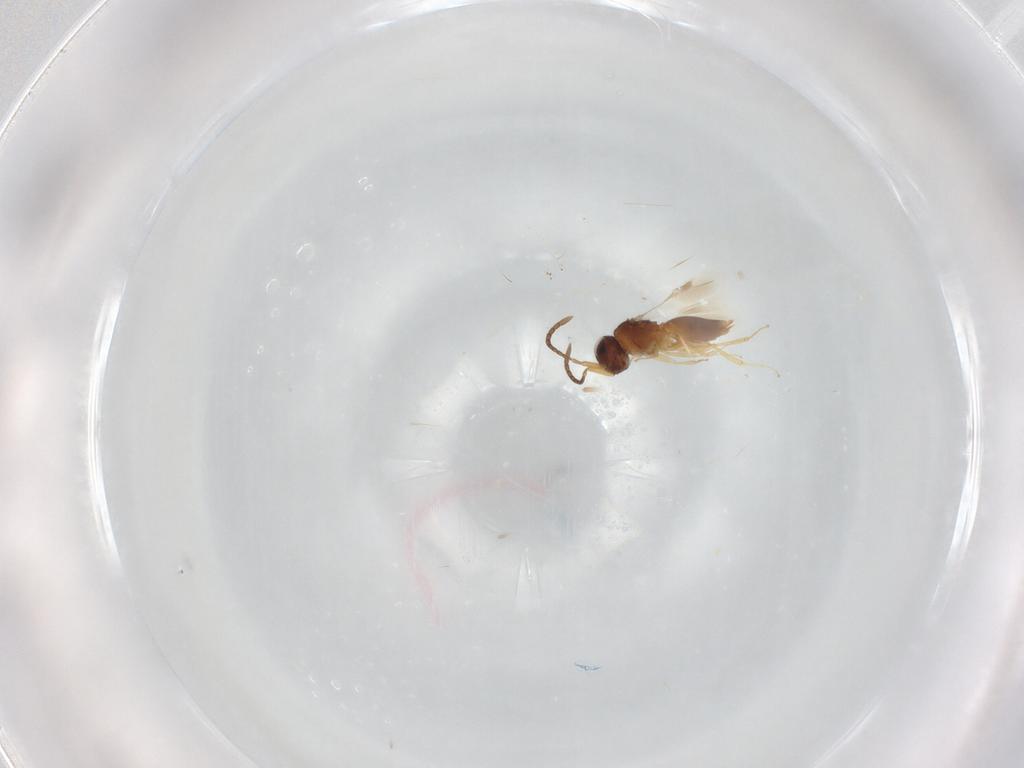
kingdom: Animalia
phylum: Arthropoda
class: Insecta
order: Hymenoptera
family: Megaspilidae
